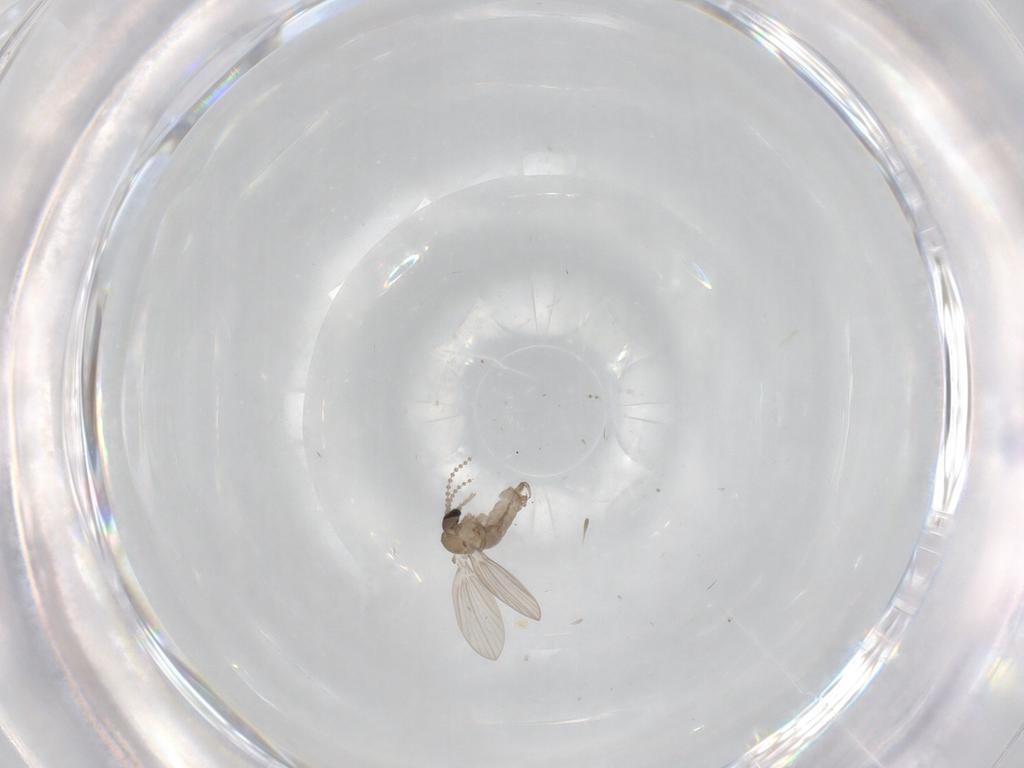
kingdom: Animalia
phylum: Arthropoda
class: Insecta
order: Diptera
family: Psychodidae
